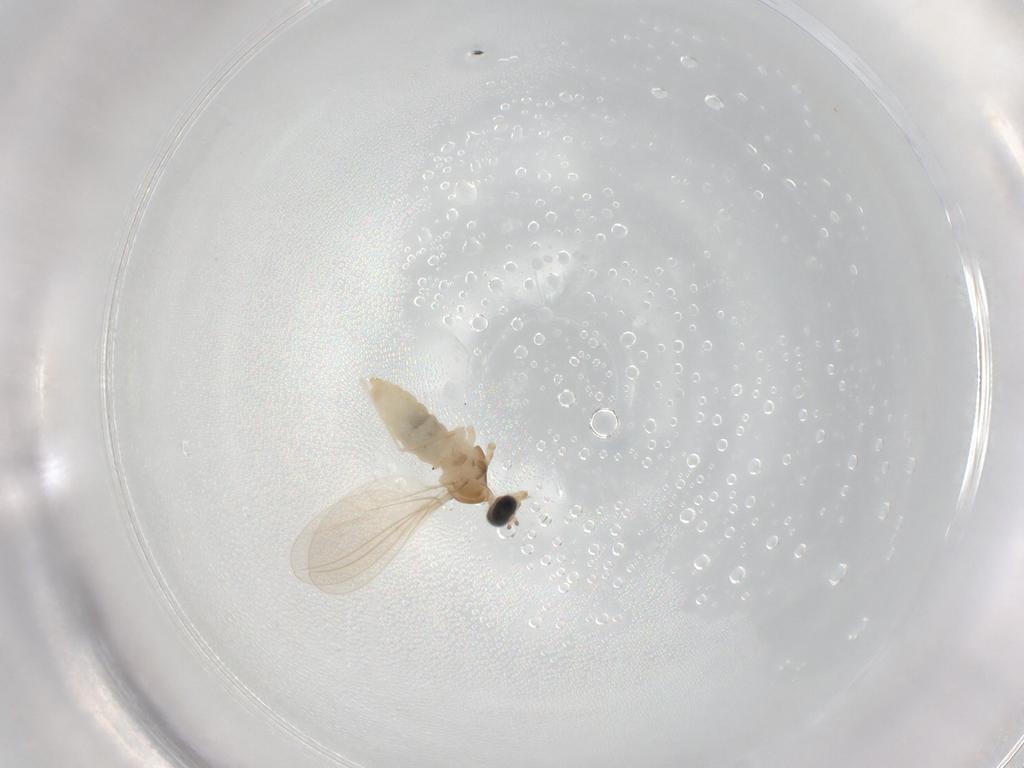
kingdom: Animalia
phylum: Arthropoda
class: Insecta
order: Diptera
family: Cecidomyiidae
